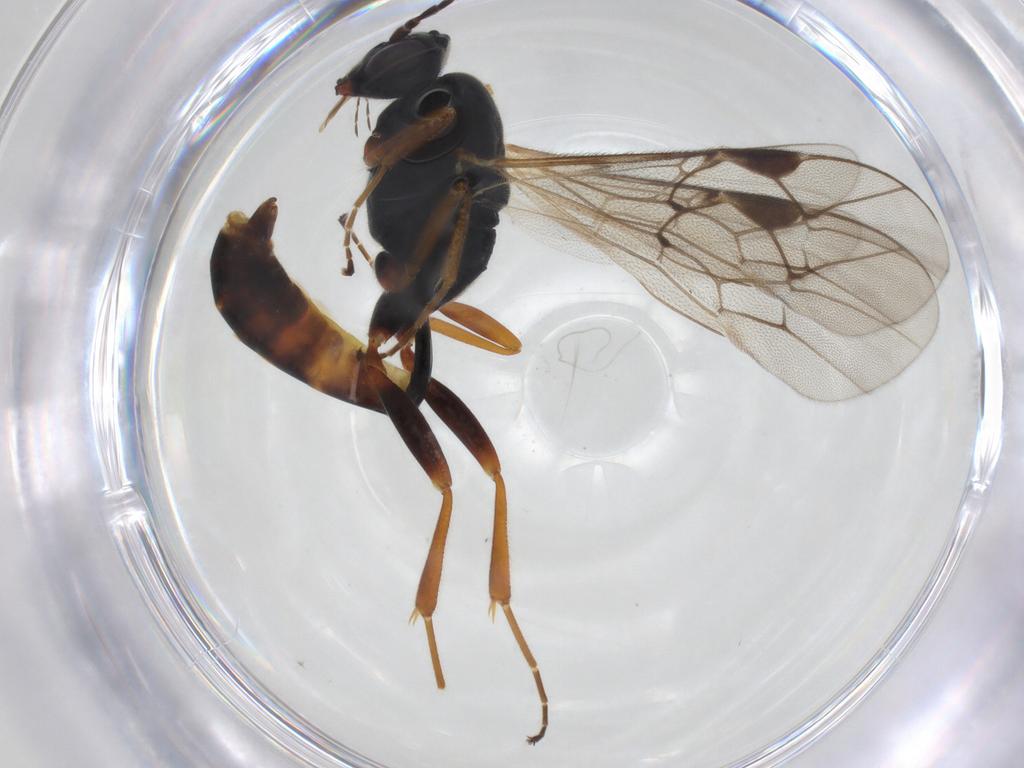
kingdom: Animalia
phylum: Arthropoda
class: Insecta
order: Hymenoptera
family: Ichneumonidae
